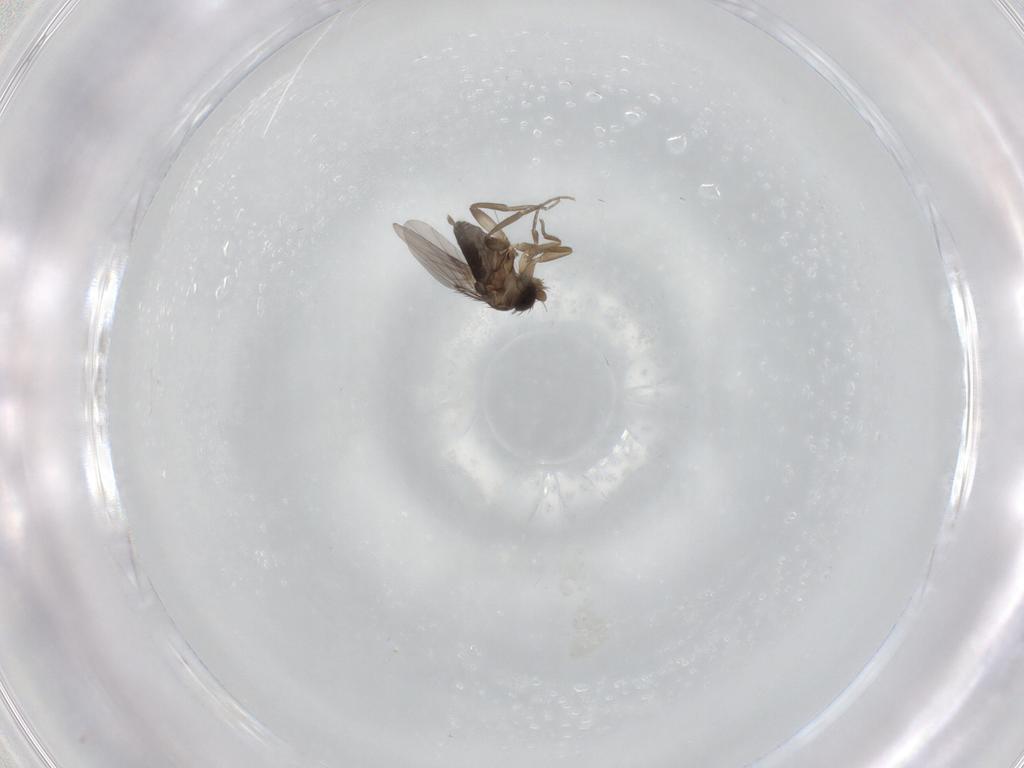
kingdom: Animalia
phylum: Arthropoda
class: Insecta
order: Diptera
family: Phoridae
